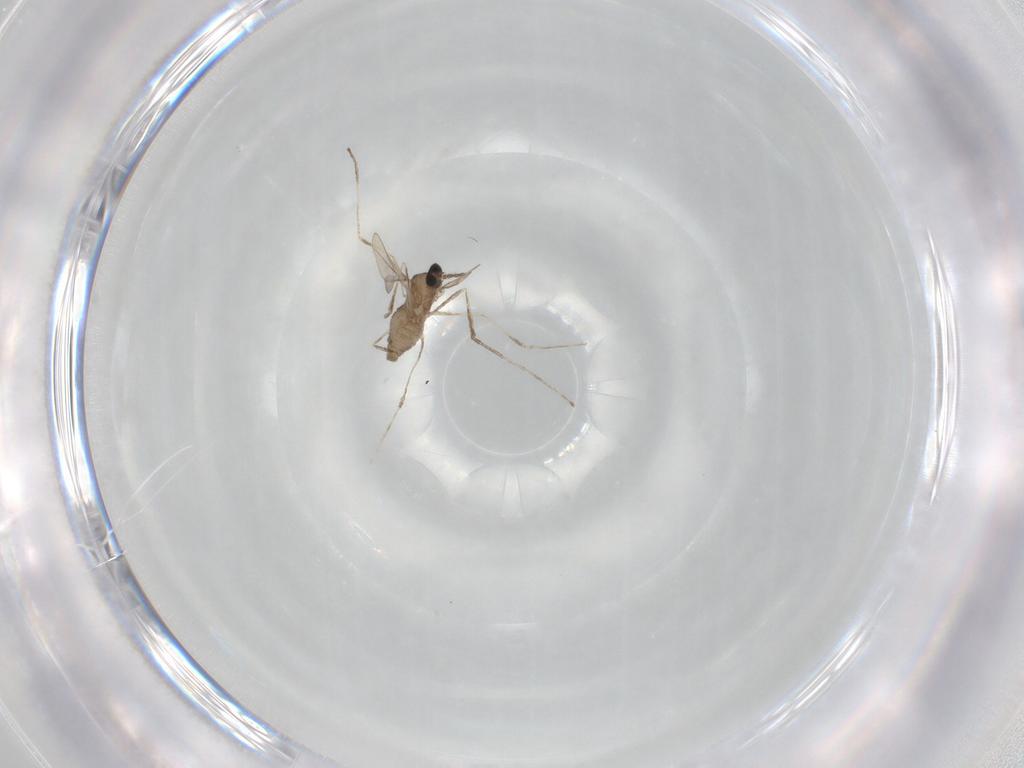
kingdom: Animalia
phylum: Arthropoda
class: Insecta
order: Diptera
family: Cecidomyiidae
